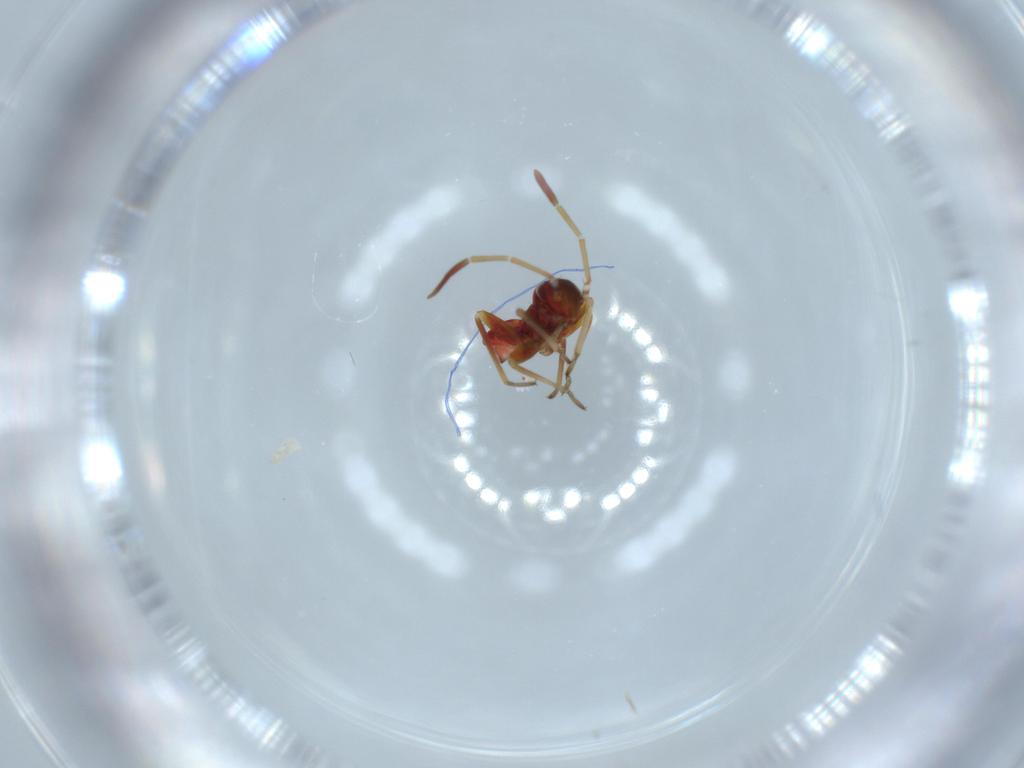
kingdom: Animalia
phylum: Arthropoda
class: Insecta
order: Hemiptera
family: Miridae
